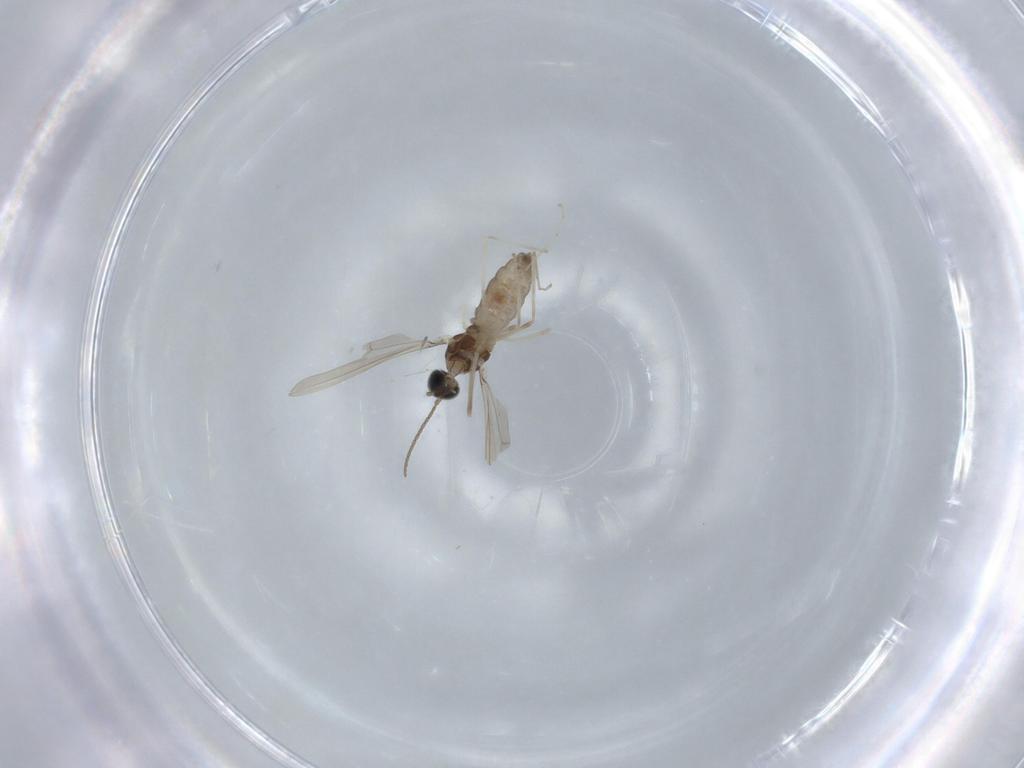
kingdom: Animalia
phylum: Arthropoda
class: Insecta
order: Diptera
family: Cecidomyiidae
